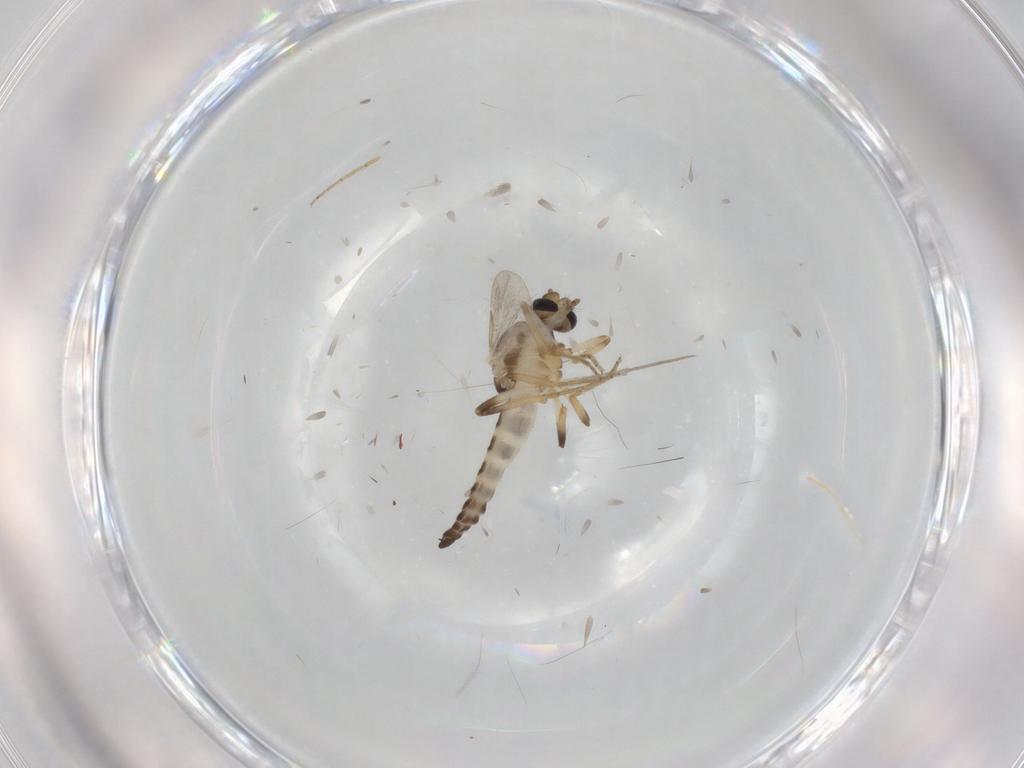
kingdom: Animalia
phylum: Arthropoda
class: Insecta
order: Diptera
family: Ceratopogonidae
